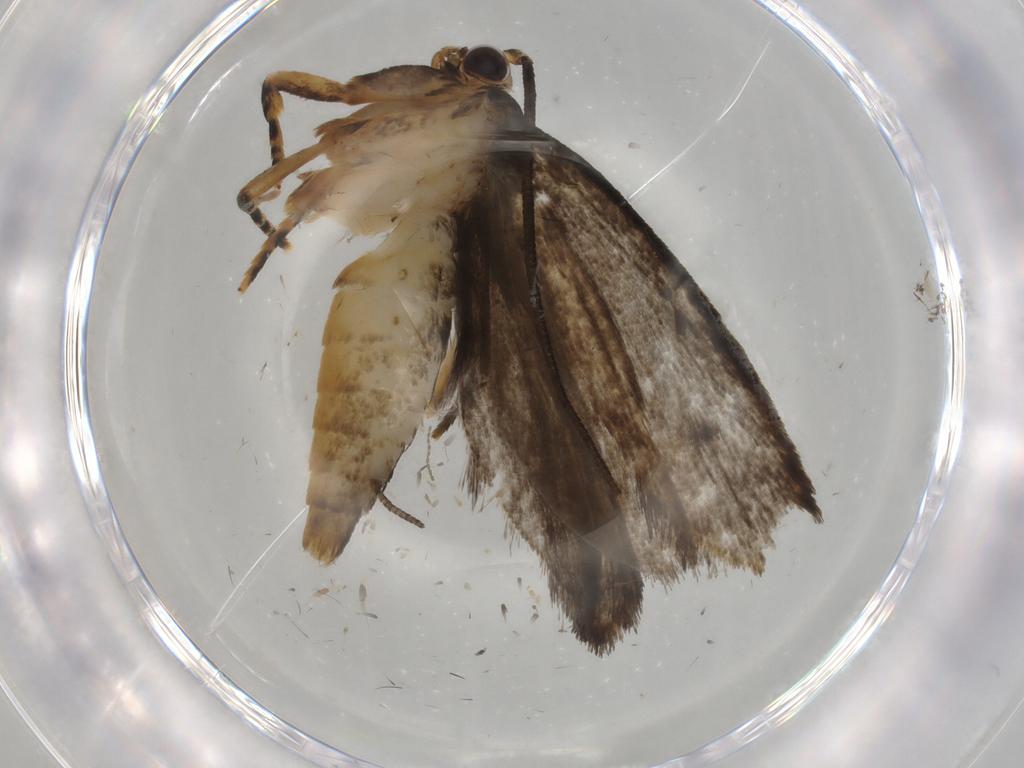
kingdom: Animalia
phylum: Arthropoda
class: Insecta
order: Lepidoptera
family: Tineidae
